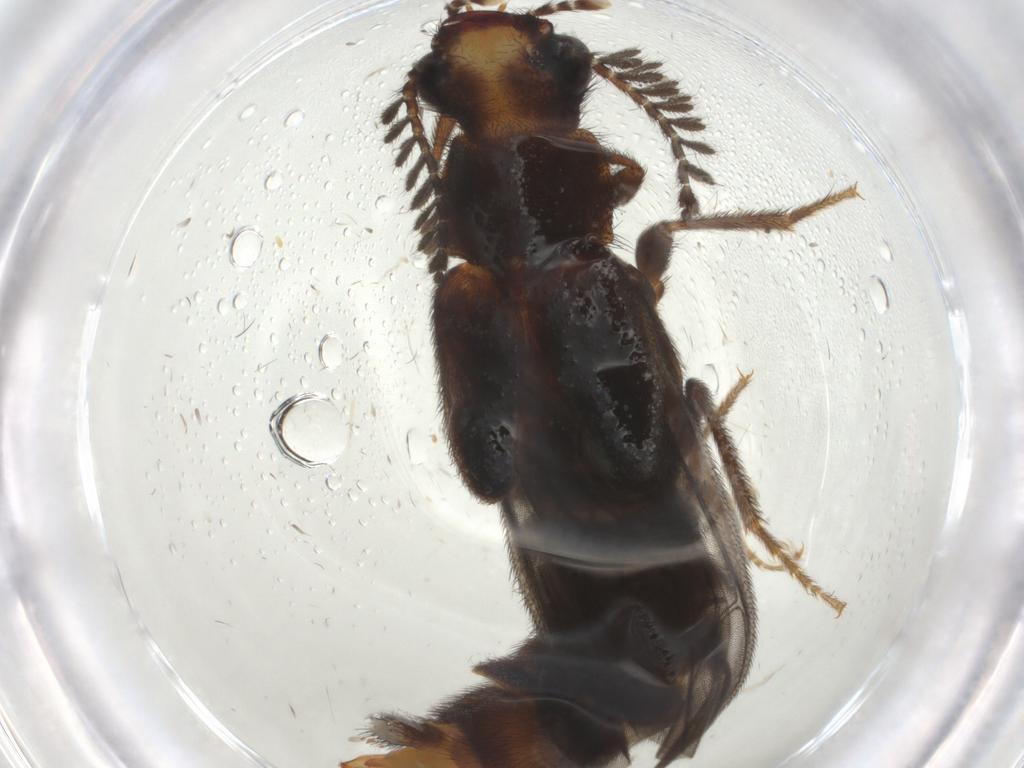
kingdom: Animalia
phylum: Arthropoda
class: Insecta
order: Coleoptera
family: Phengodidae
